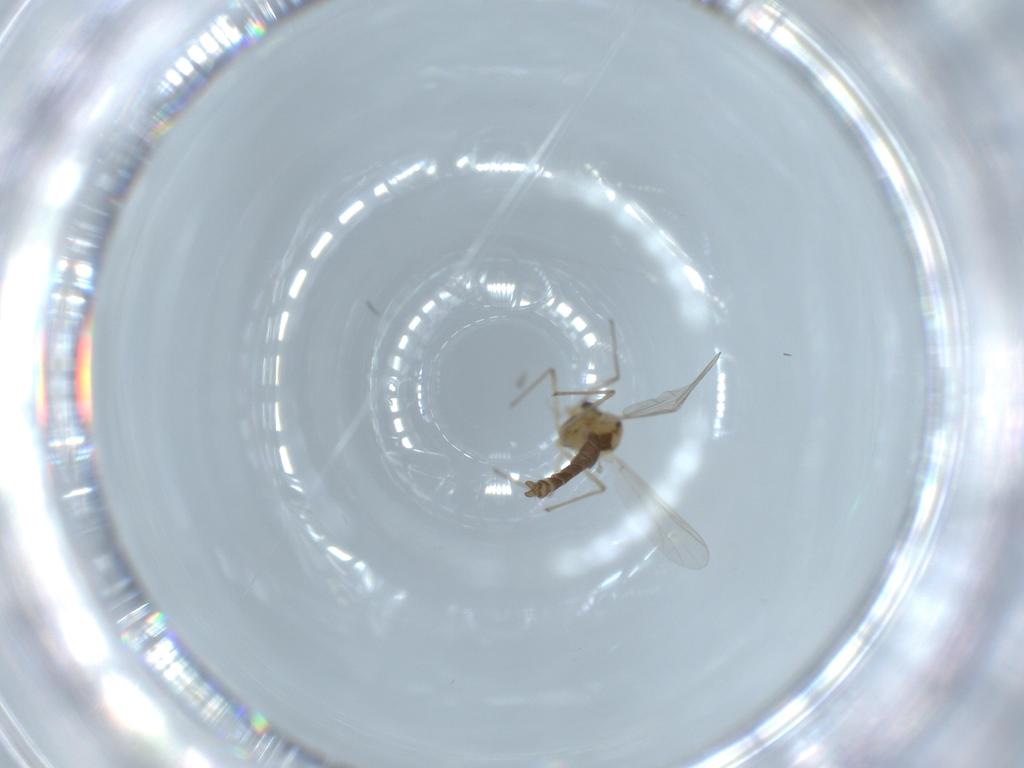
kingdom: Animalia
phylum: Arthropoda
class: Insecta
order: Diptera
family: Chironomidae
